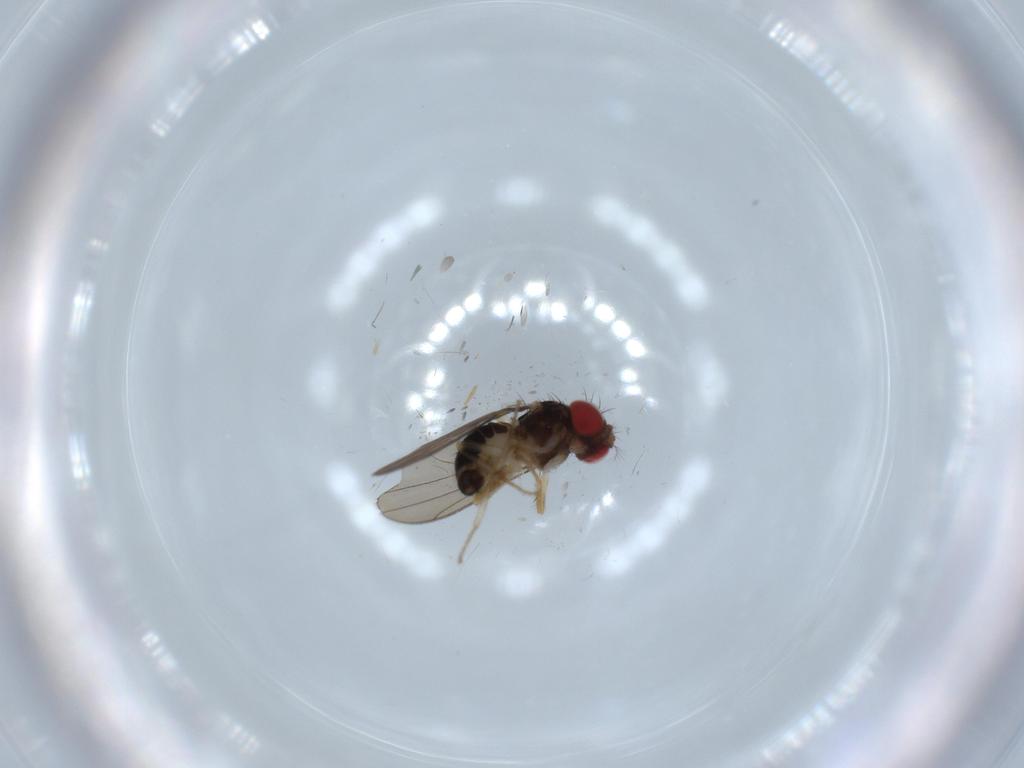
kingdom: Animalia
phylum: Arthropoda
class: Insecta
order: Diptera
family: Drosophilidae
